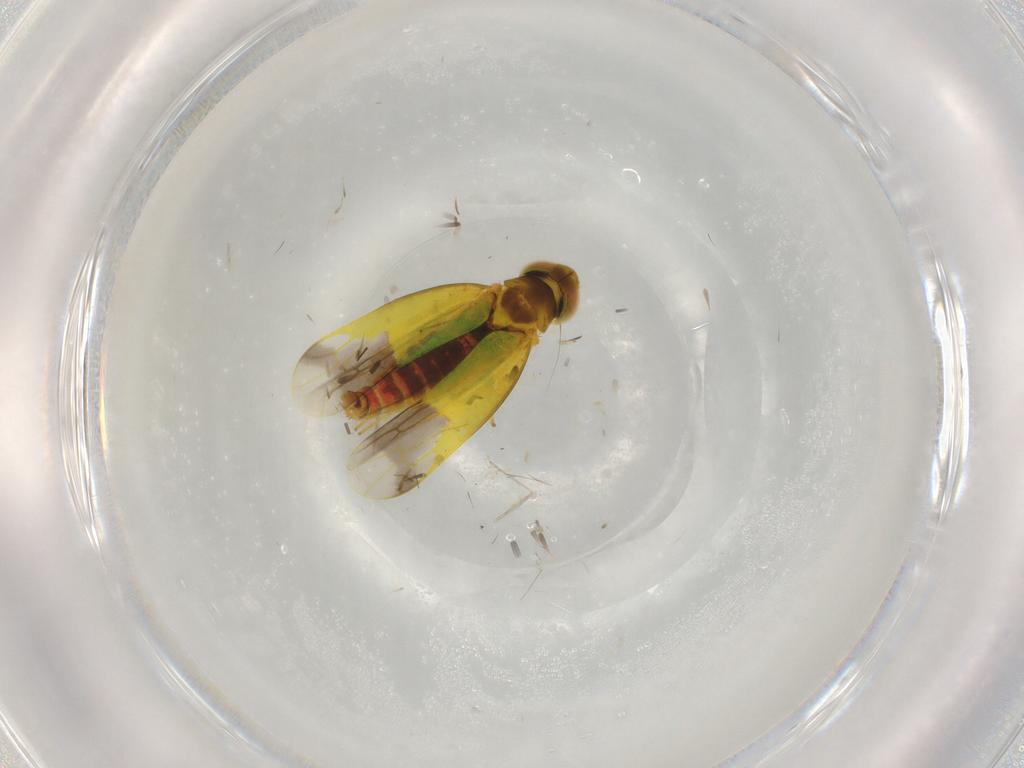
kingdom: Animalia
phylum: Arthropoda
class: Insecta
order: Hemiptera
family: Cicadellidae
